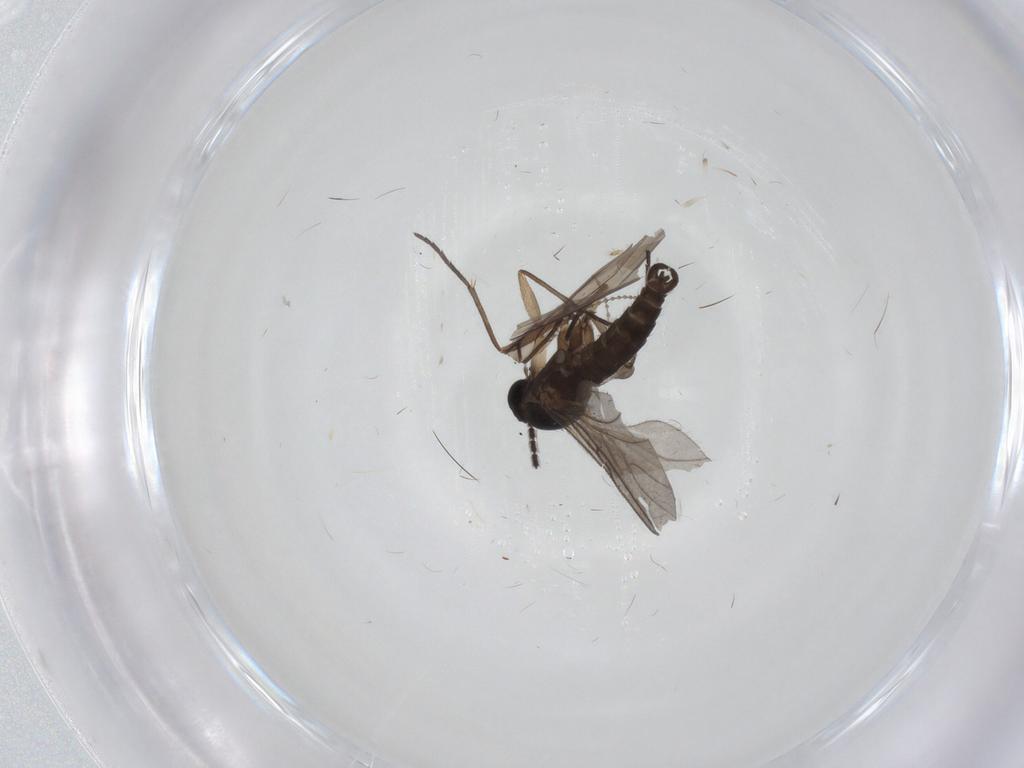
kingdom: Animalia
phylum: Arthropoda
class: Insecta
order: Diptera
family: Sciaridae
